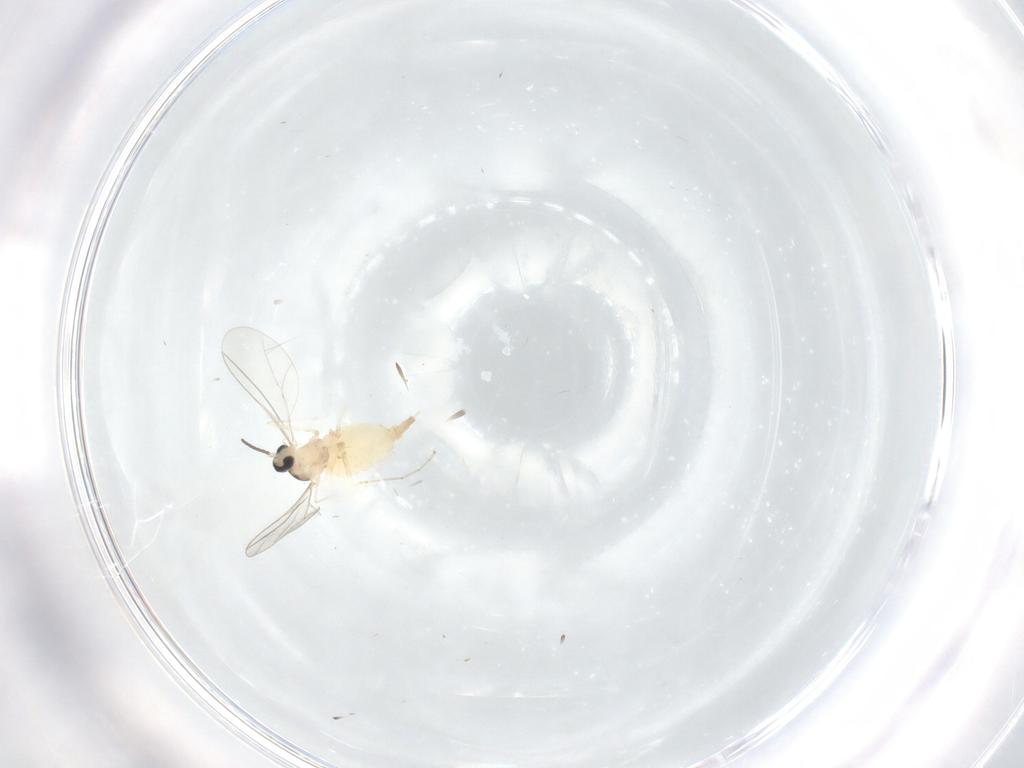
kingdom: Animalia
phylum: Arthropoda
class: Insecta
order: Diptera
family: Cecidomyiidae
